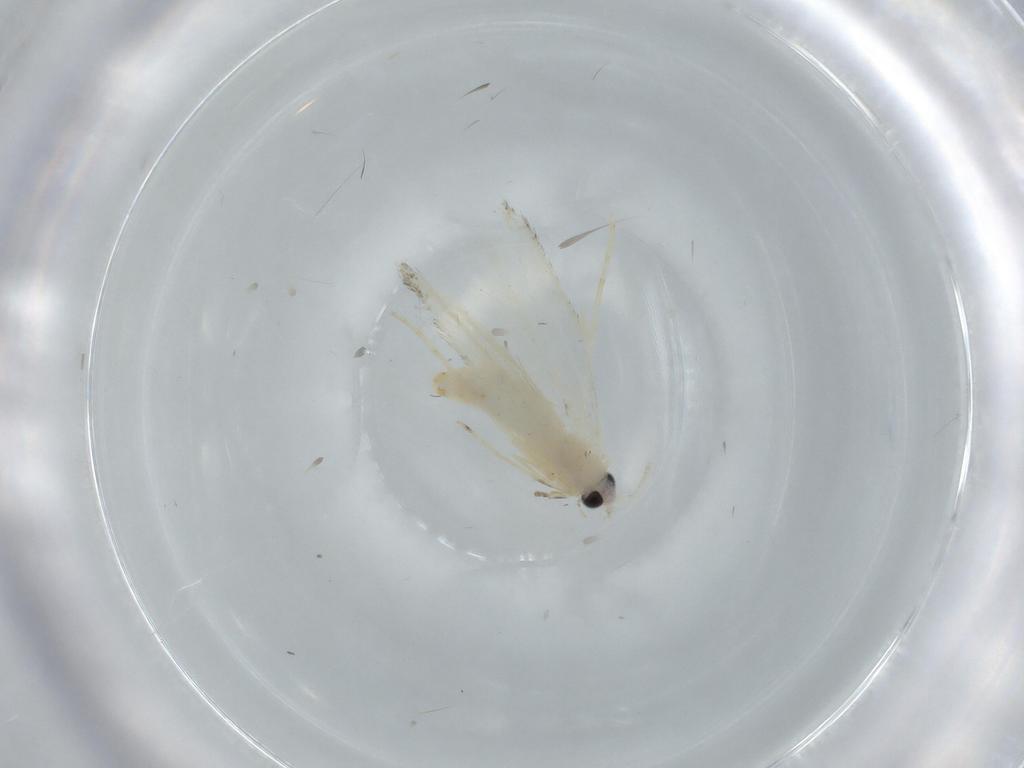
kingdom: Animalia
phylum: Arthropoda
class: Insecta
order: Lepidoptera
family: Tineidae
